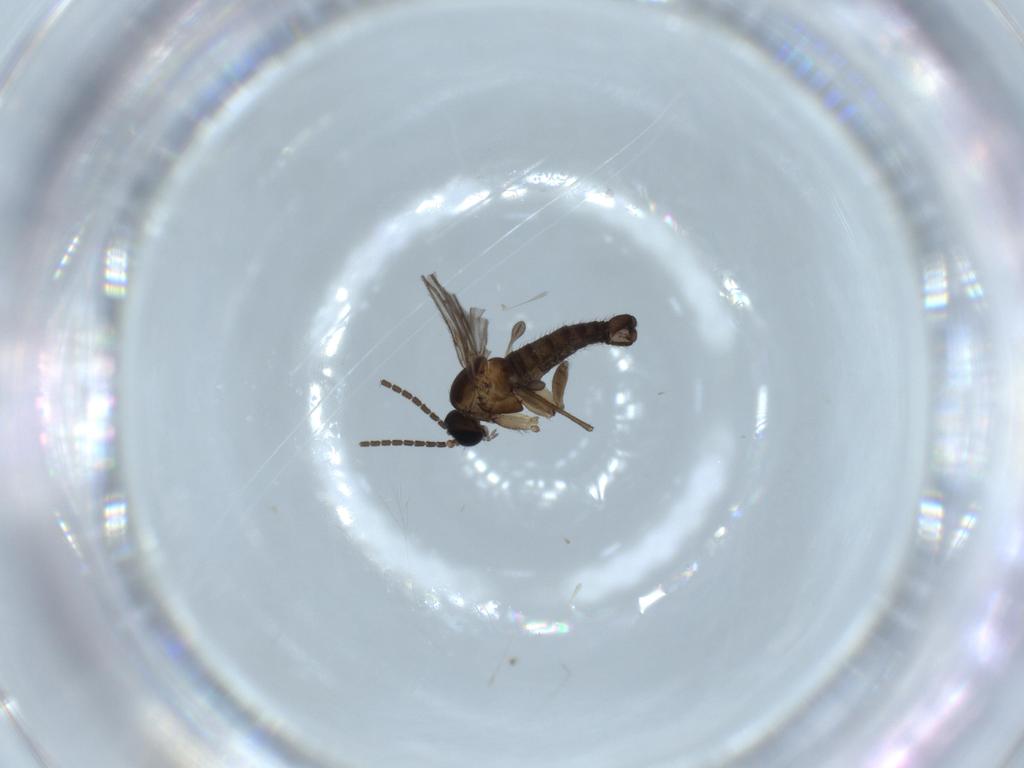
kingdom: Animalia
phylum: Arthropoda
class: Insecta
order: Diptera
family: Sciaridae
